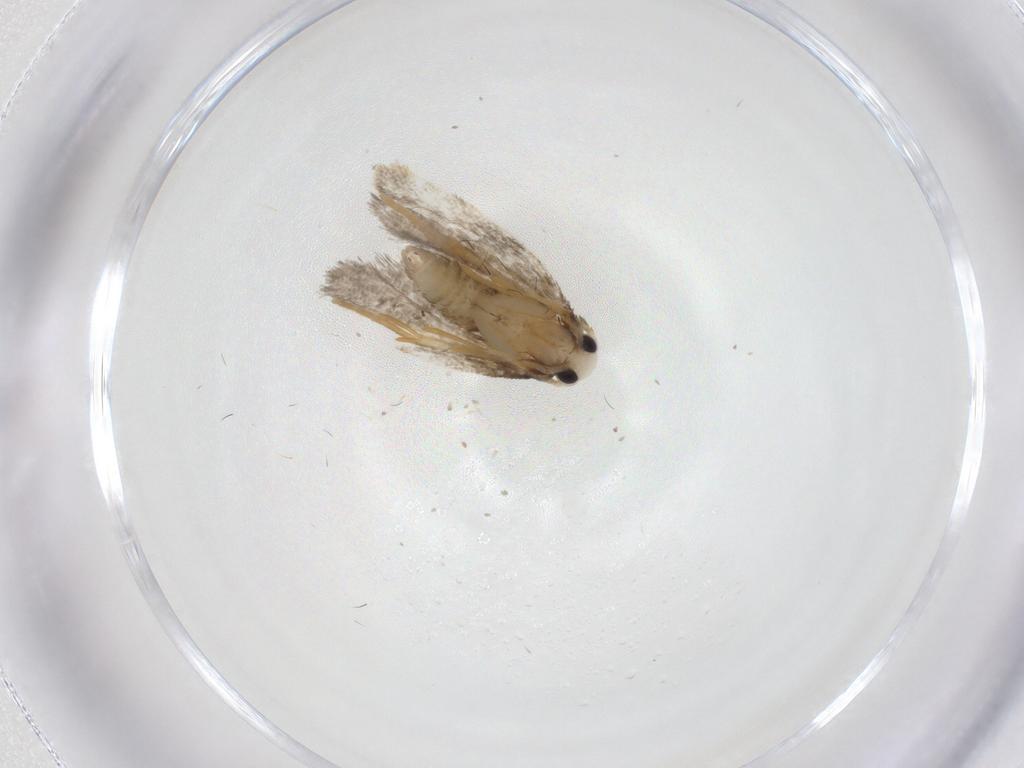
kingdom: Animalia
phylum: Arthropoda
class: Insecta
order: Lepidoptera
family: Psychidae
